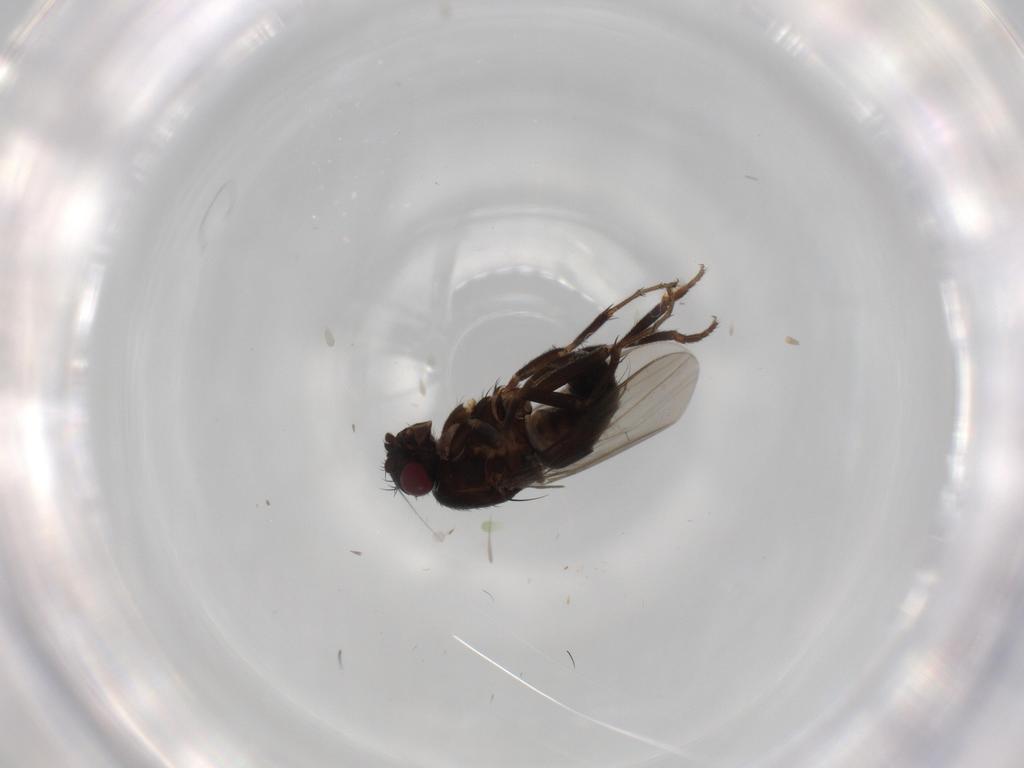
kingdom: Animalia
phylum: Arthropoda
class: Insecta
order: Diptera
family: Sphaeroceridae
